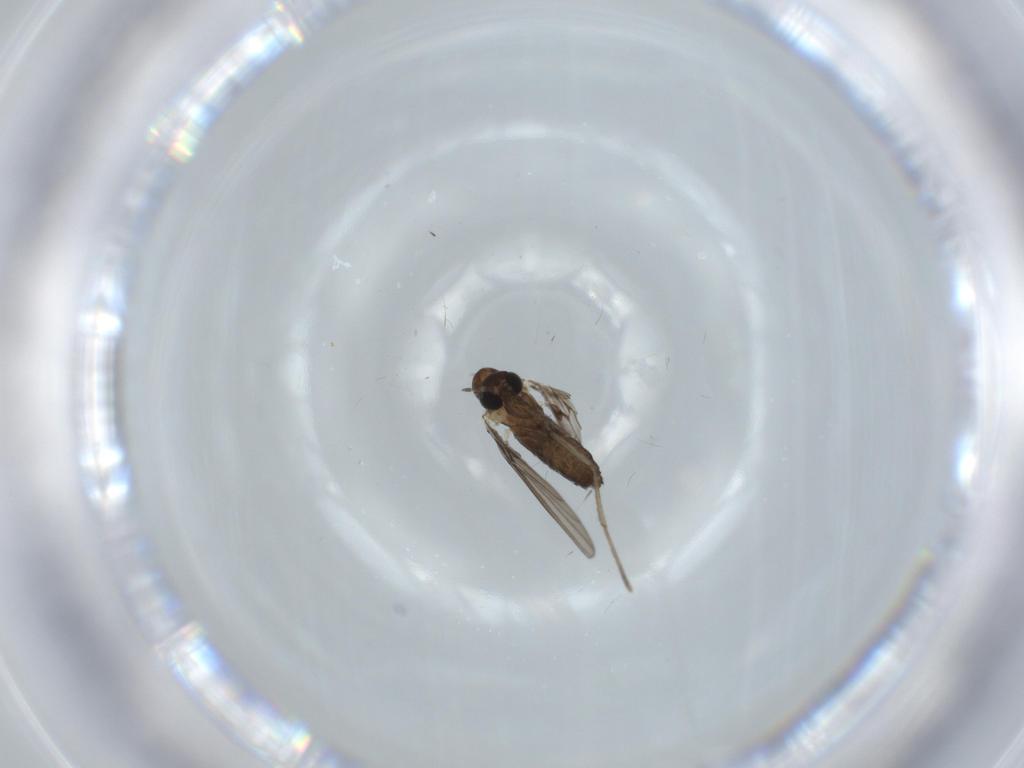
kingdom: Animalia
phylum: Arthropoda
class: Insecta
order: Diptera
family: Psychodidae
